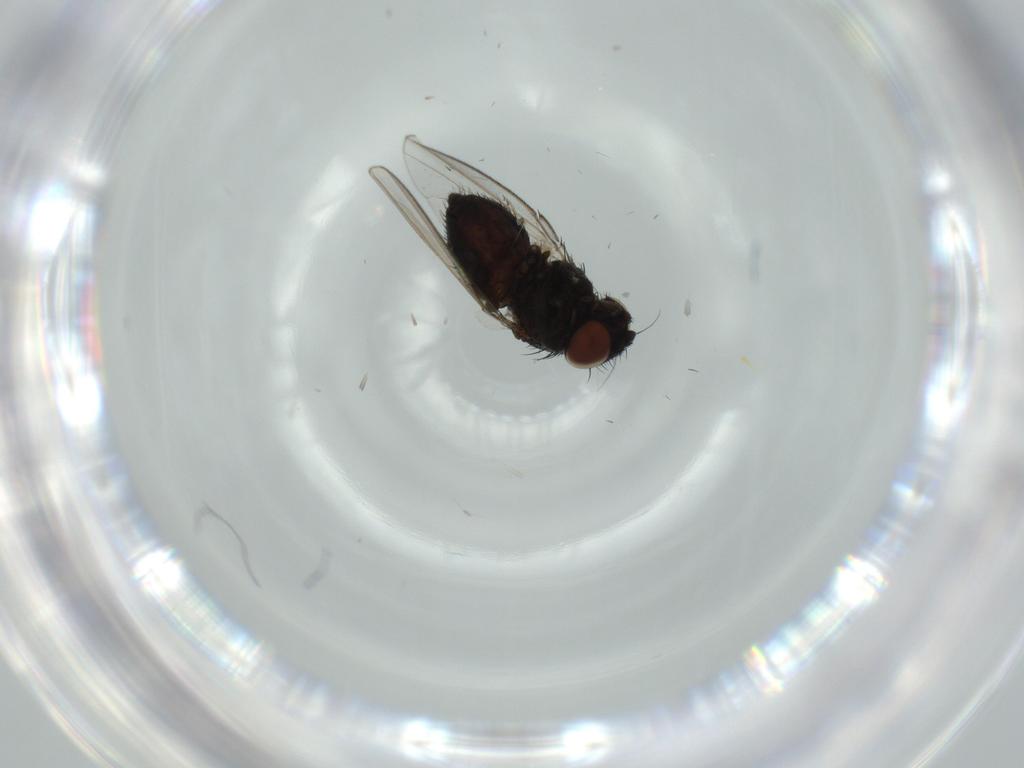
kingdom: Animalia
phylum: Arthropoda
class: Insecta
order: Diptera
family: Milichiidae
